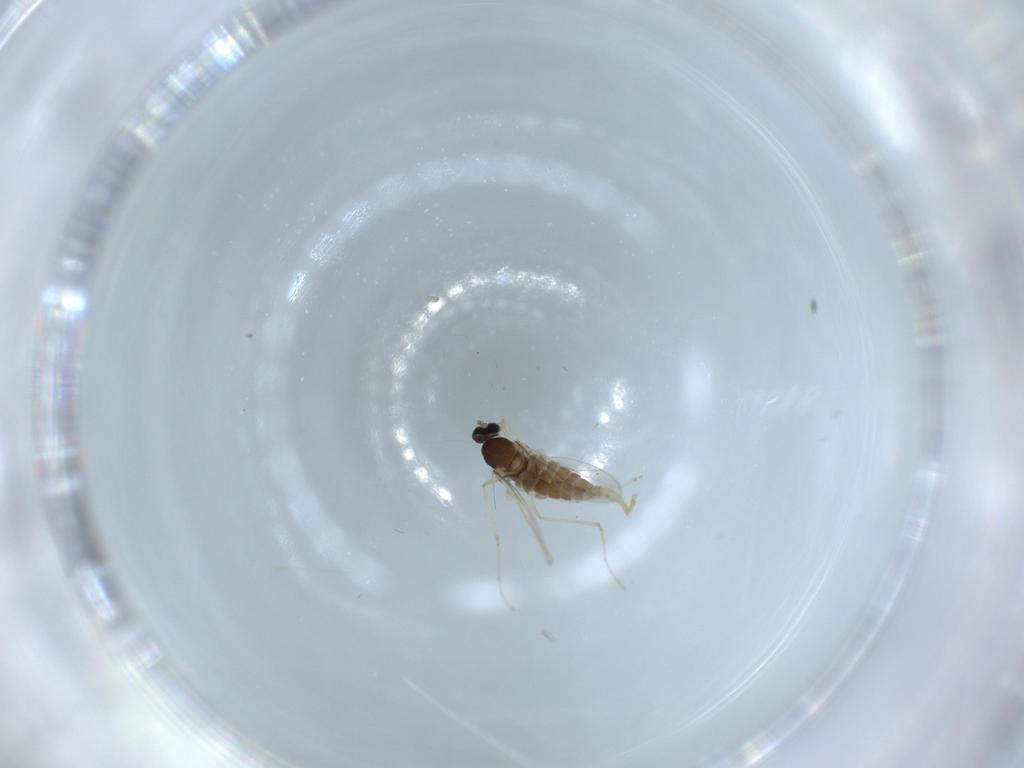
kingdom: Animalia
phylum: Arthropoda
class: Insecta
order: Diptera
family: Cecidomyiidae
